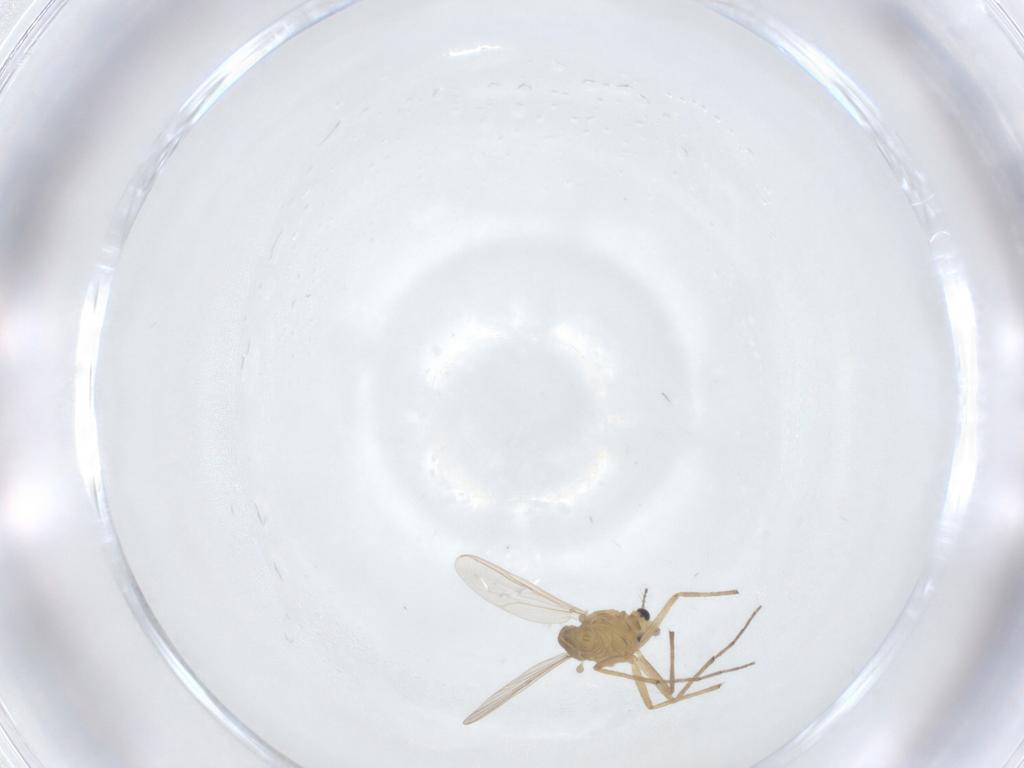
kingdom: Animalia
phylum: Arthropoda
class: Insecta
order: Diptera
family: Chironomidae
